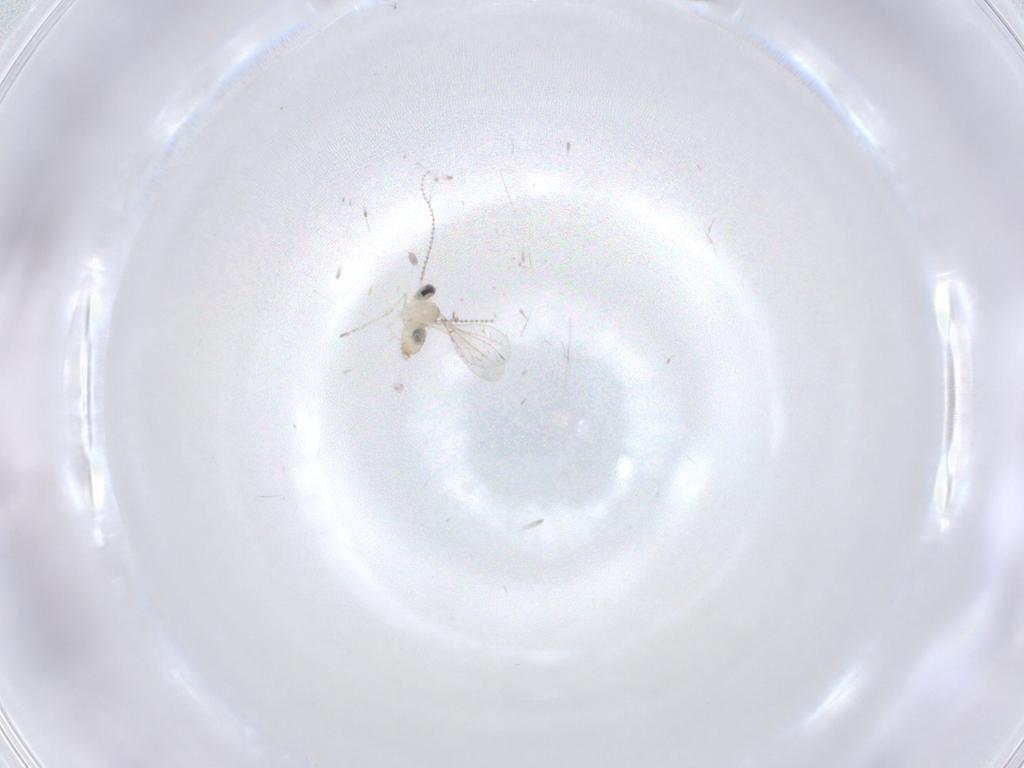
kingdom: Animalia
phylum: Arthropoda
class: Insecta
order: Diptera
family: Cecidomyiidae
